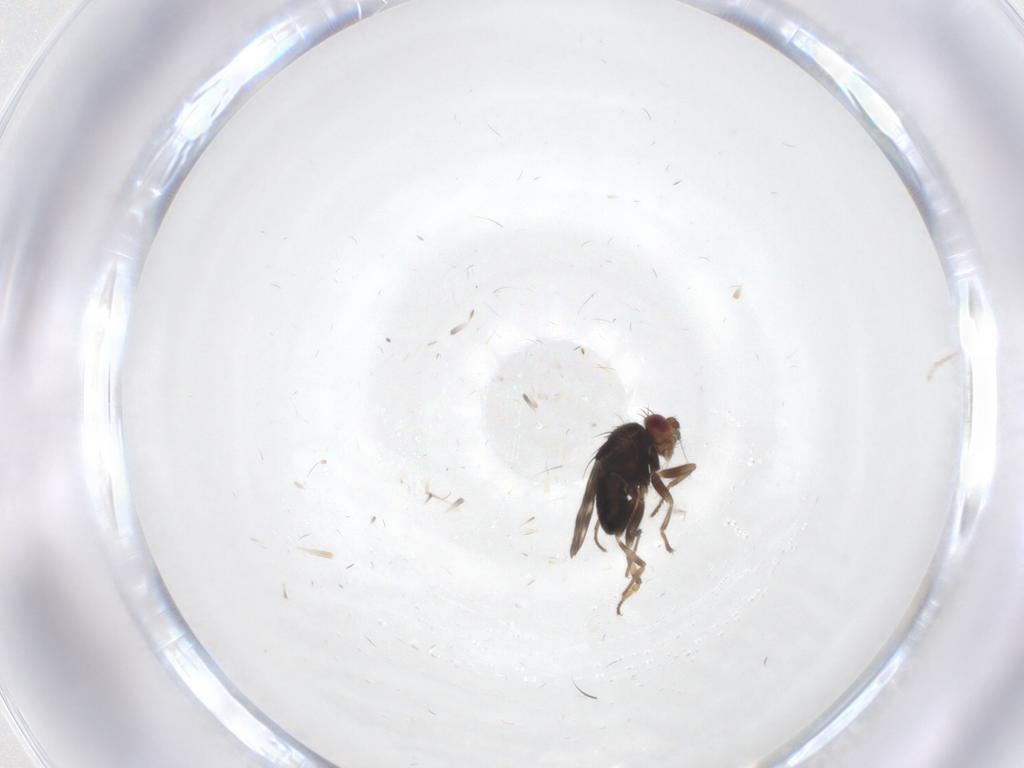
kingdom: Animalia
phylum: Arthropoda
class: Insecta
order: Diptera
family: Sphaeroceridae
